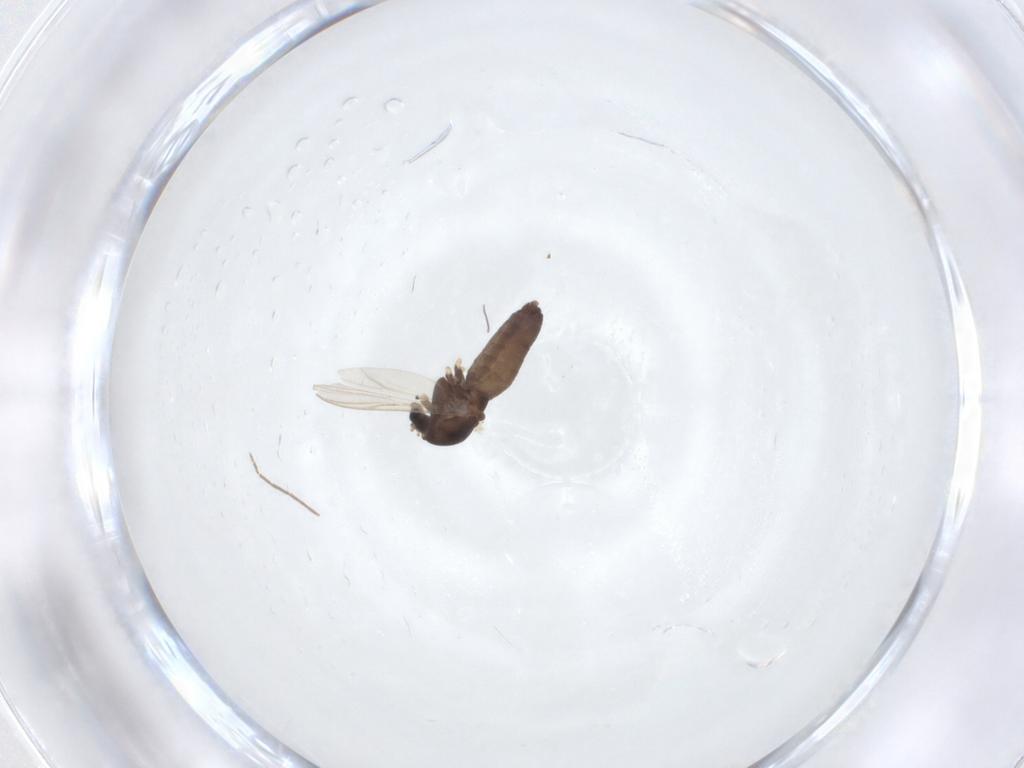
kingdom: Animalia
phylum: Arthropoda
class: Insecta
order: Diptera
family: Chironomidae
